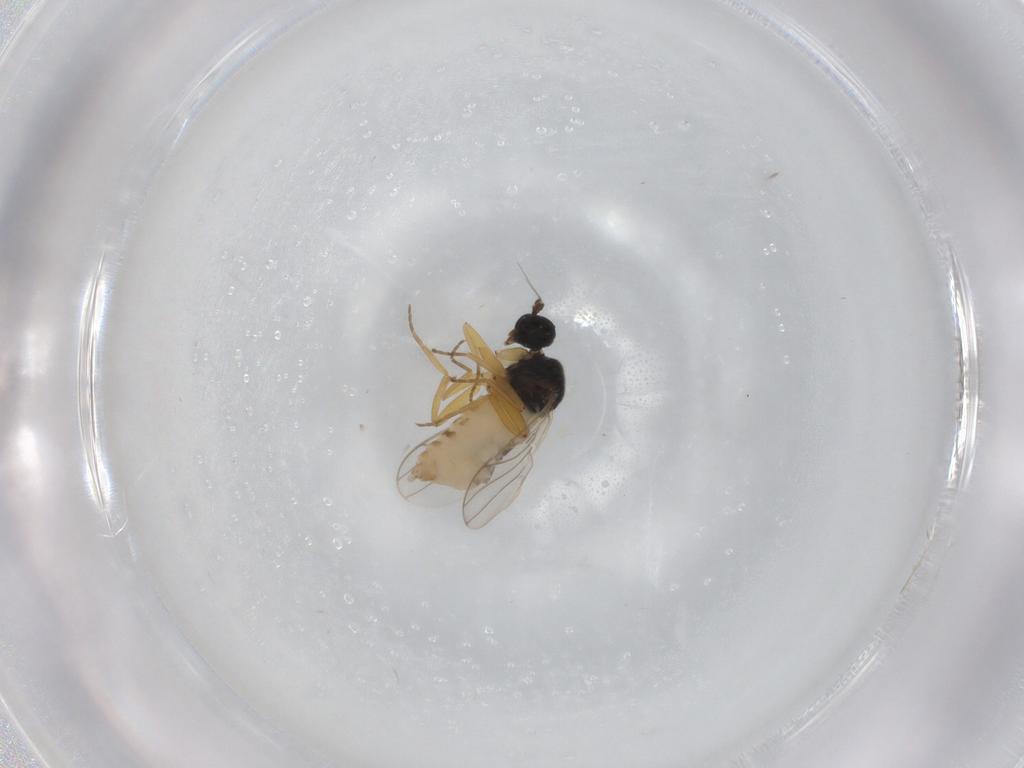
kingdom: Animalia
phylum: Arthropoda
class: Insecta
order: Diptera
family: Hybotidae
